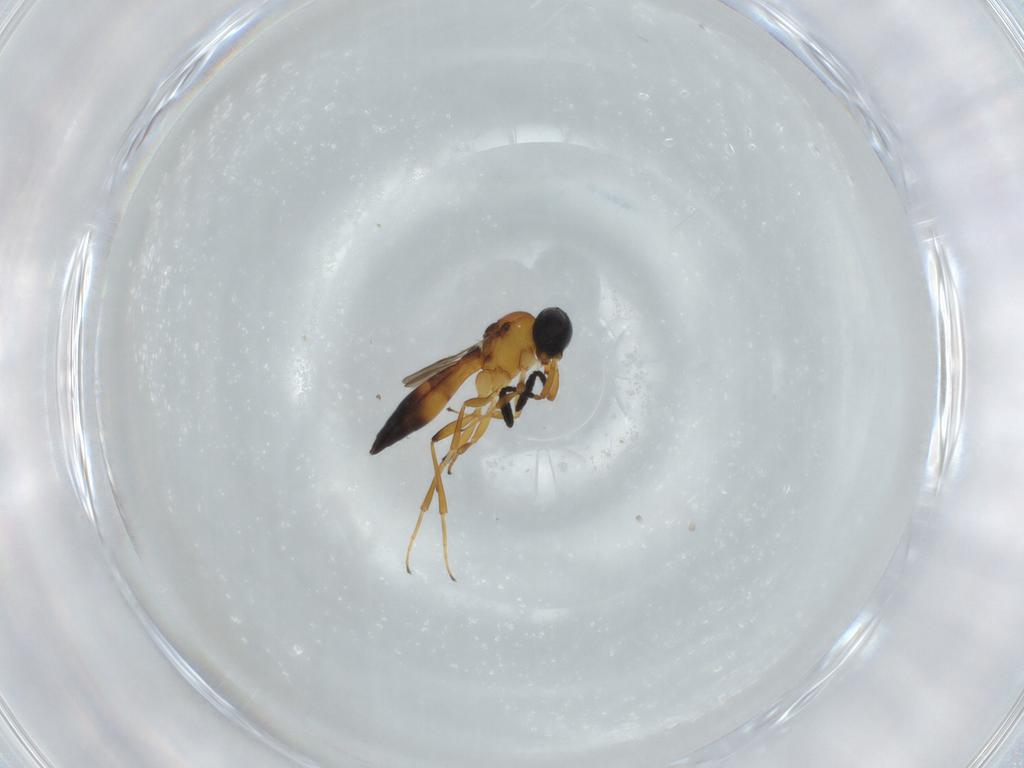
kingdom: Animalia
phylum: Arthropoda
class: Insecta
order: Hymenoptera
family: Scelionidae
